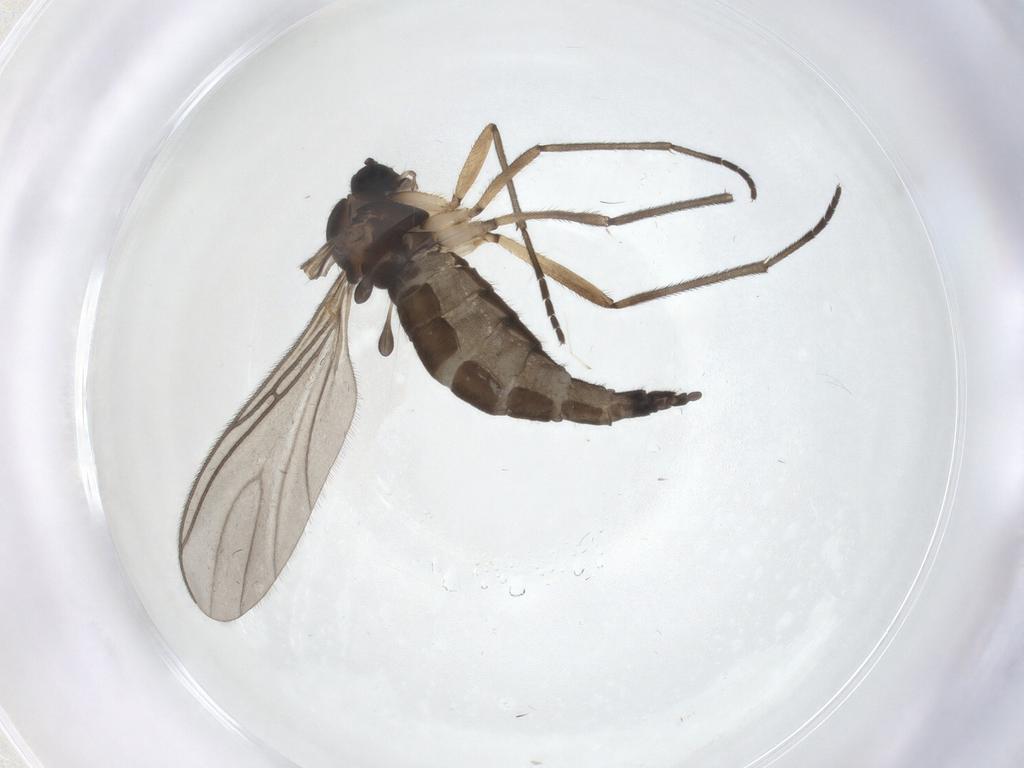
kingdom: Animalia
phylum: Arthropoda
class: Insecta
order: Diptera
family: Sciaridae
